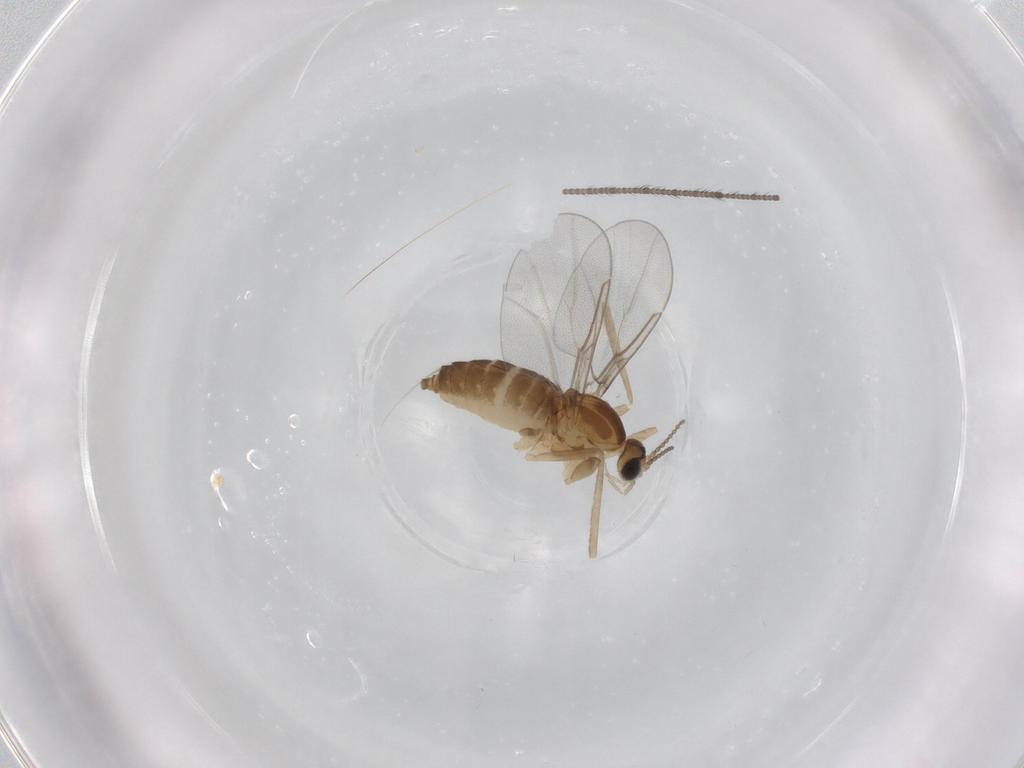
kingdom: Animalia
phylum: Arthropoda
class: Insecta
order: Diptera
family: Cecidomyiidae
